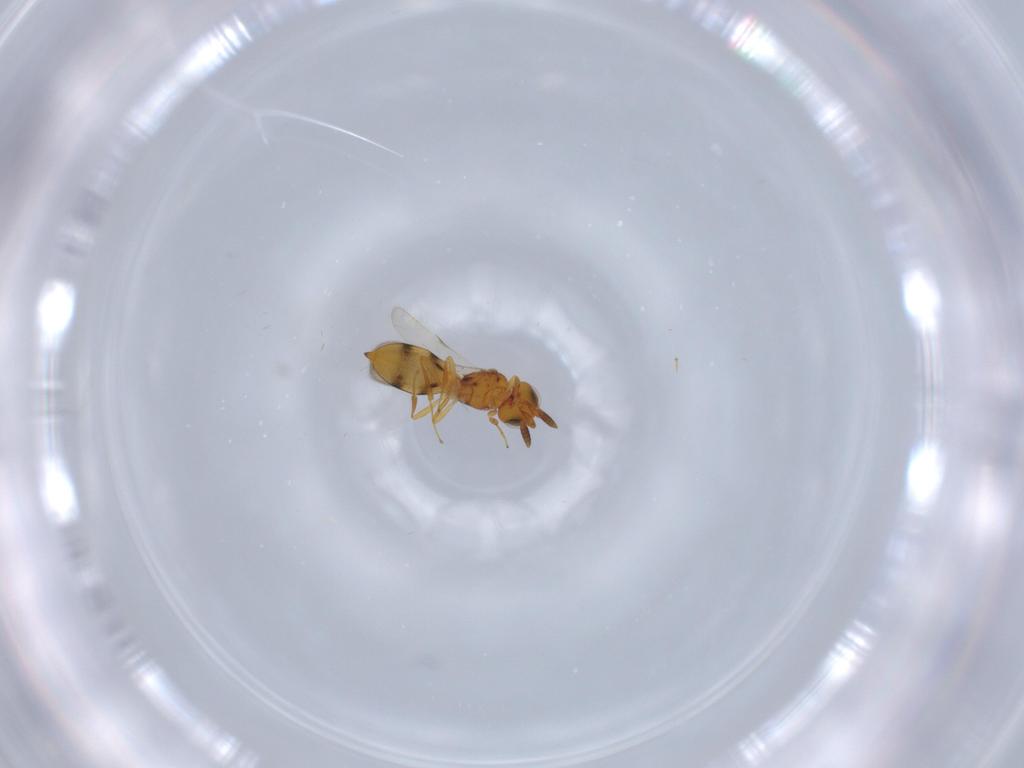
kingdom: Animalia
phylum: Arthropoda
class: Insecta
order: Hymenoptera
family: Scelionidae
